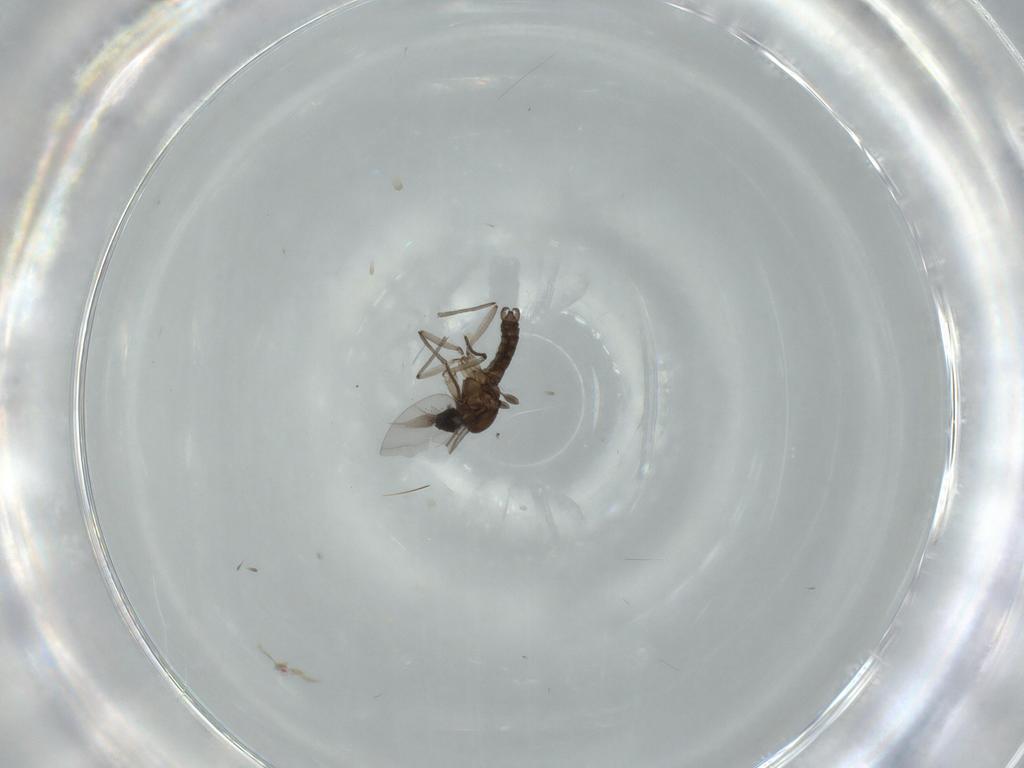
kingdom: Animalia
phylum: Arthropoda
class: Insecta
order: Diptera
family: Sciaridae
